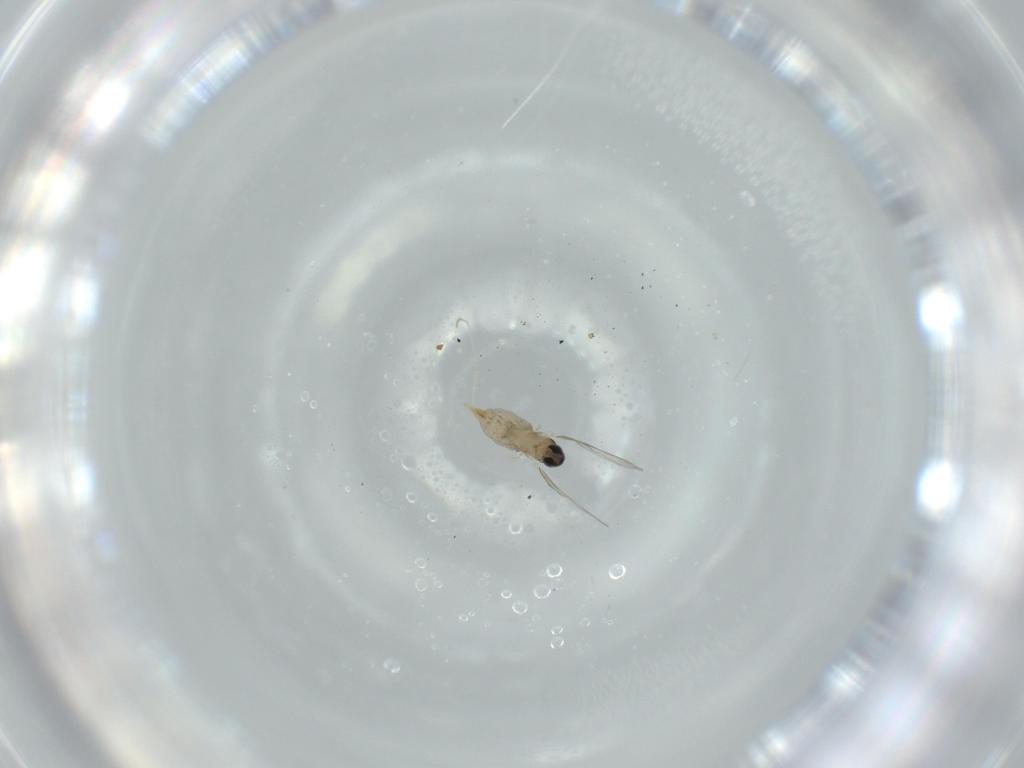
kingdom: Animalia
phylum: Arthropoda
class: Insecta
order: Diptera
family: Cecidomyiidae
